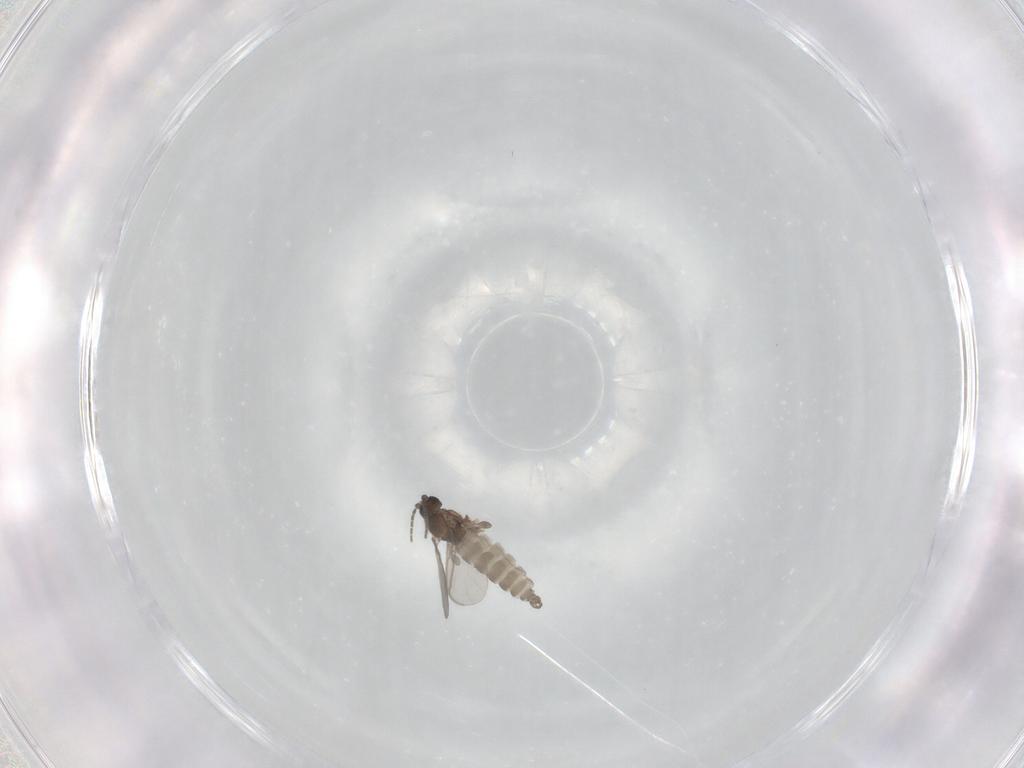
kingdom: Animalia
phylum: Arthropoda
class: Insecta
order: Diptera
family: Sciaridae
